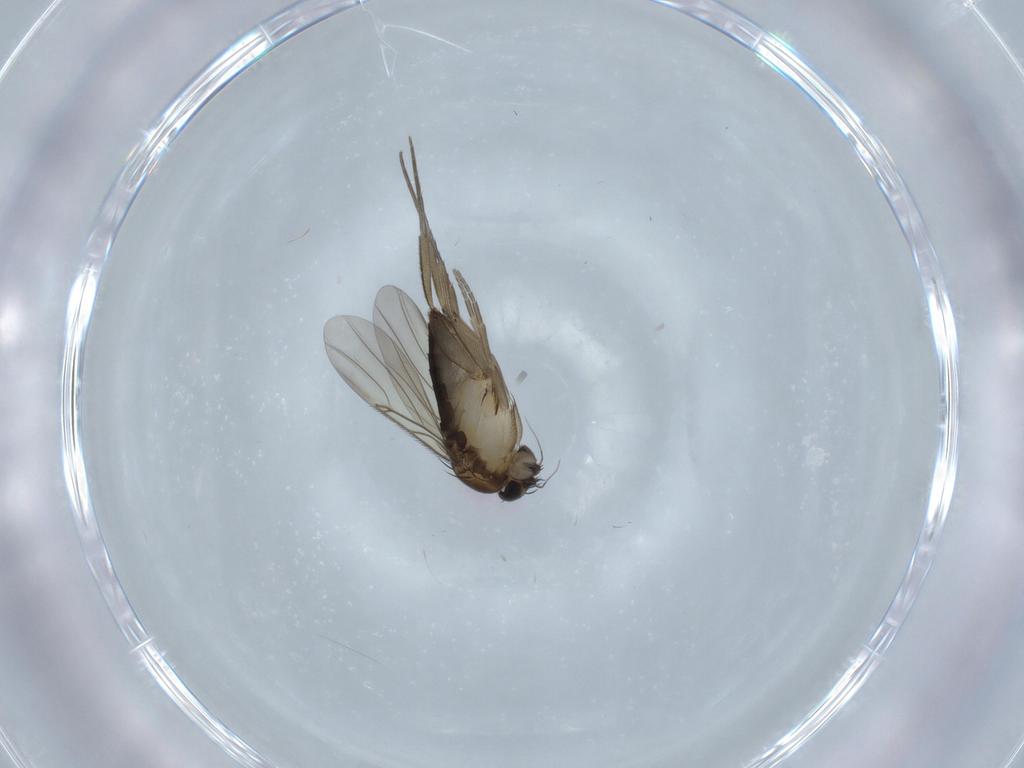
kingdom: Animalia
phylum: Arthropoda
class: Insecta
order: Diptera
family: Phoridae
